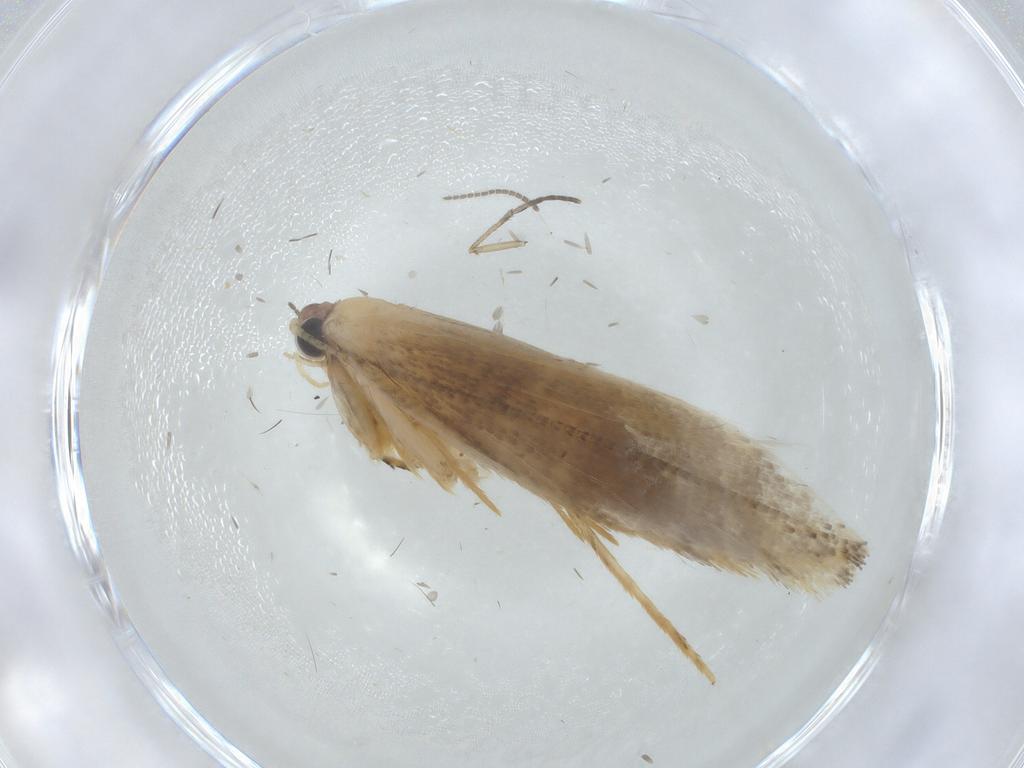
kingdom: Animalia
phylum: Arthropoda
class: Insecta
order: Lepidoptera
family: Tineidae
